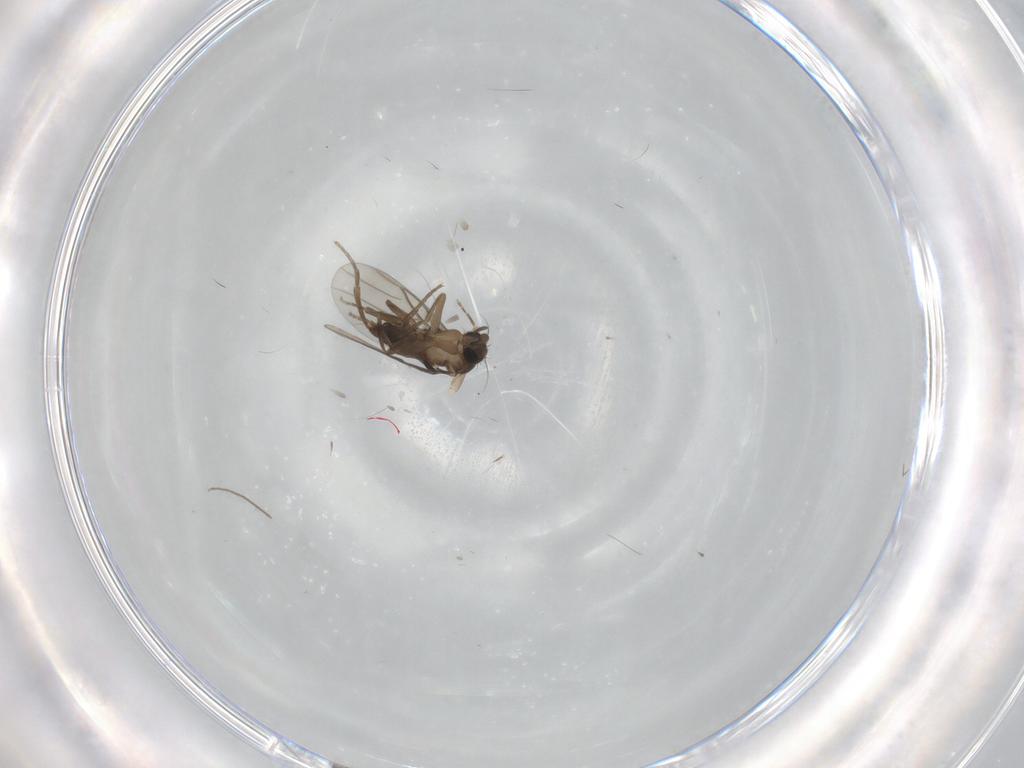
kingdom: Animalia
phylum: Arthropoda
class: Insecta
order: Diptera
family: Phoridae
